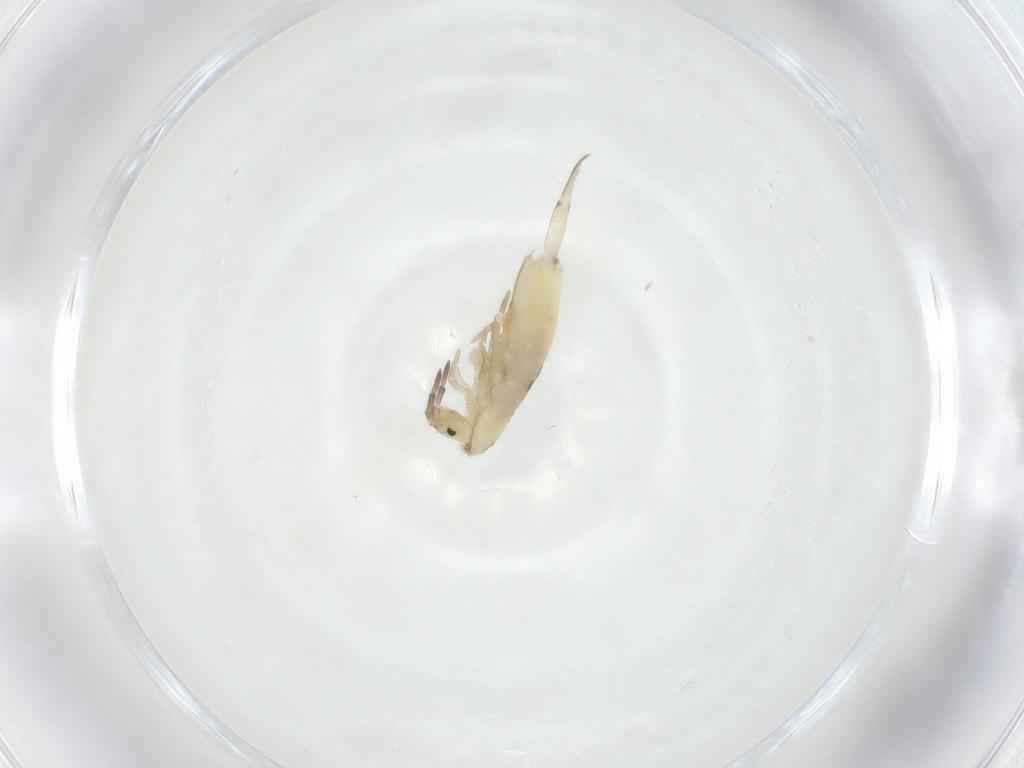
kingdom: Animalia
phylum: Arthropoda
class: Collembola
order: Entomobryomorpha
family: Entomobryidae
